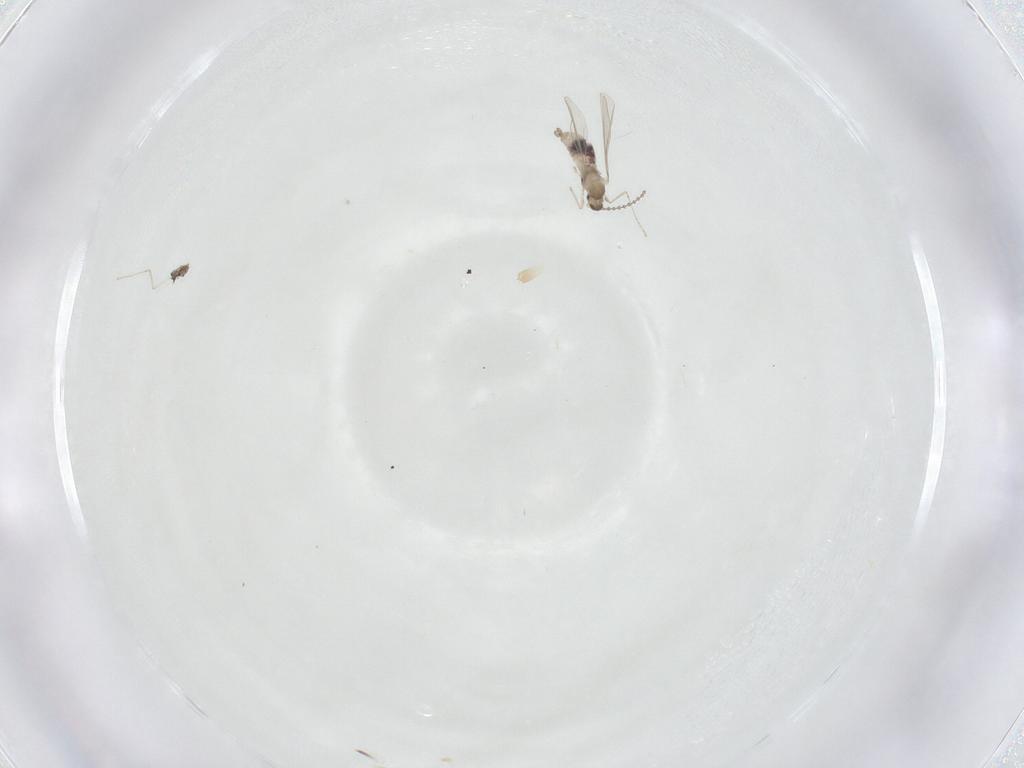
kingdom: Animalia
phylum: Arthropoda
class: Insecta
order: Diptera
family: Cecidomyiidae
